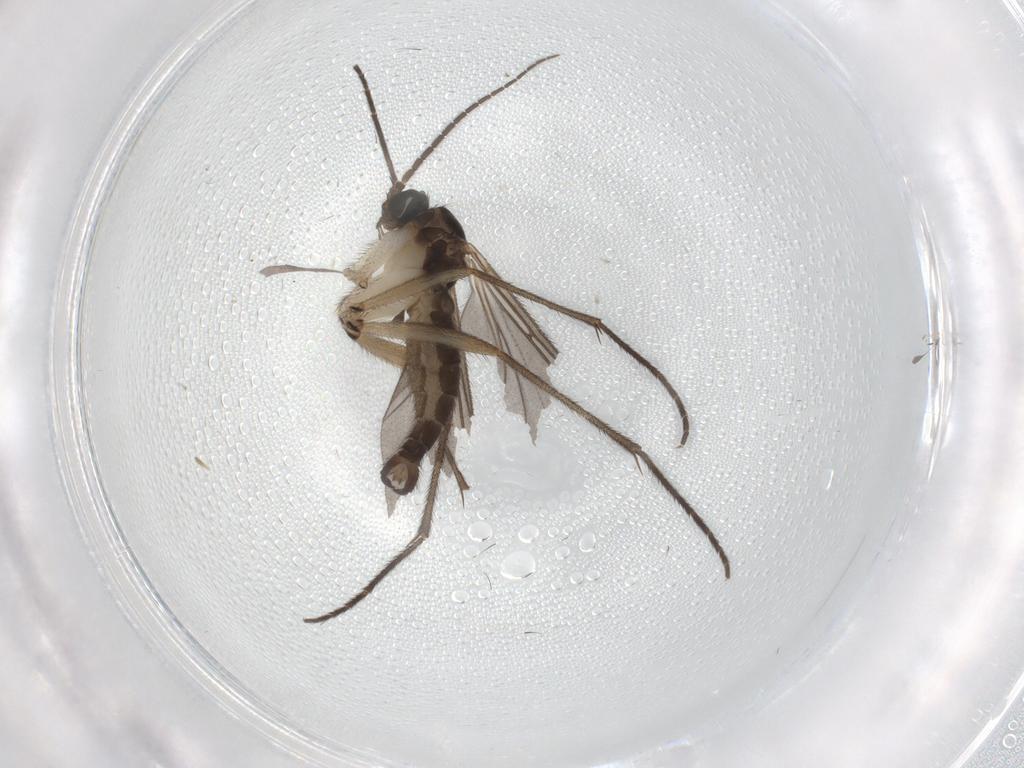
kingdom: Animalia
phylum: Arthropoda
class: Insecta
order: Diptera
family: Sciaridae
